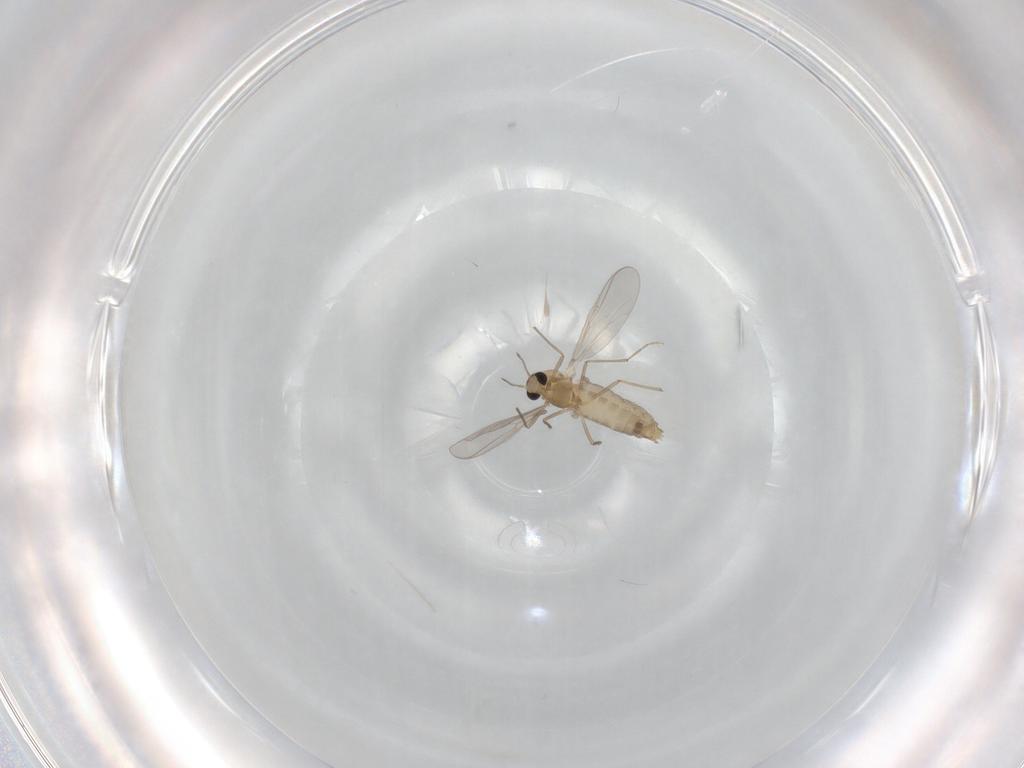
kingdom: Animalia
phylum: Arthropoda
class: Insecta
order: Diptera
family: Chironomidae
